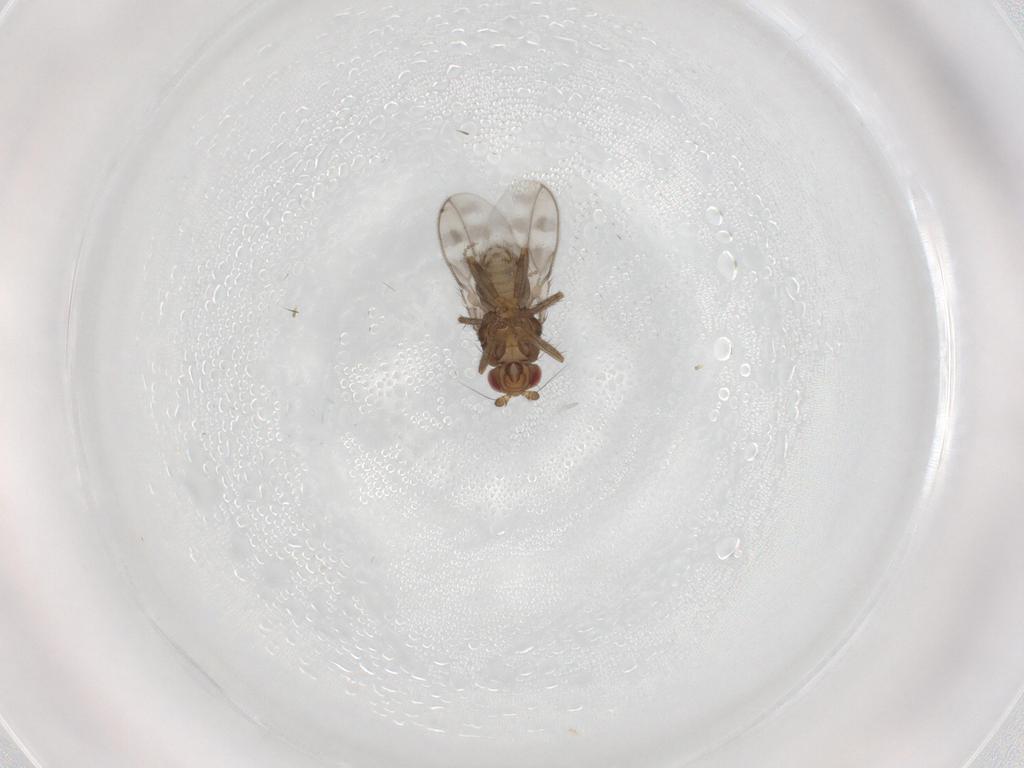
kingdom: Animalia
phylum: Arthropoda
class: Insecta
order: Diptera
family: Sphaeroceridae
